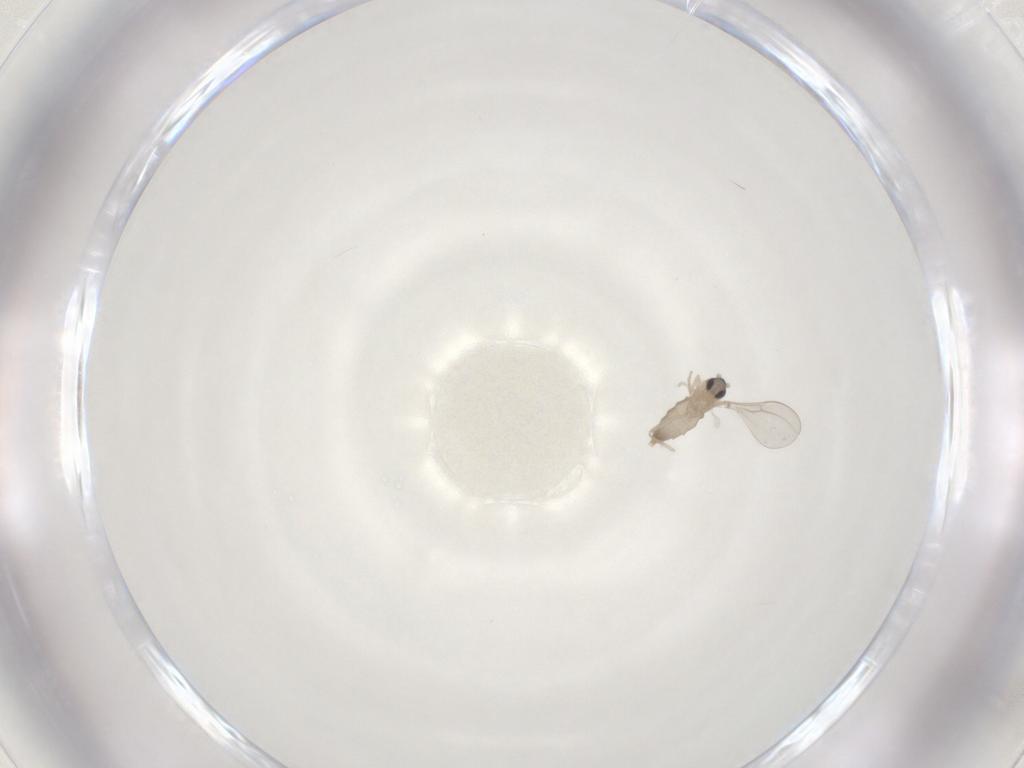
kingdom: Animalia
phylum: Arthropoda
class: Insecta
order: Diptera
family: Cecidomyiidae
